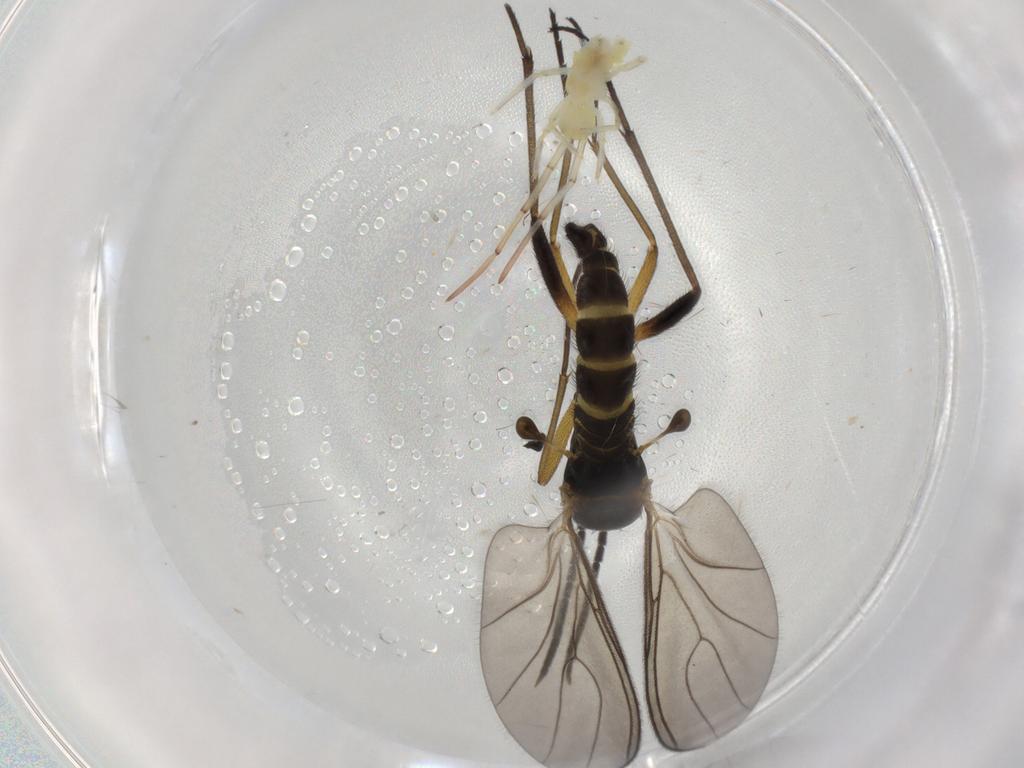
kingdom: Animalia
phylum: Arthropoda
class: Insecta
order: Diptera
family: Sciaridae
